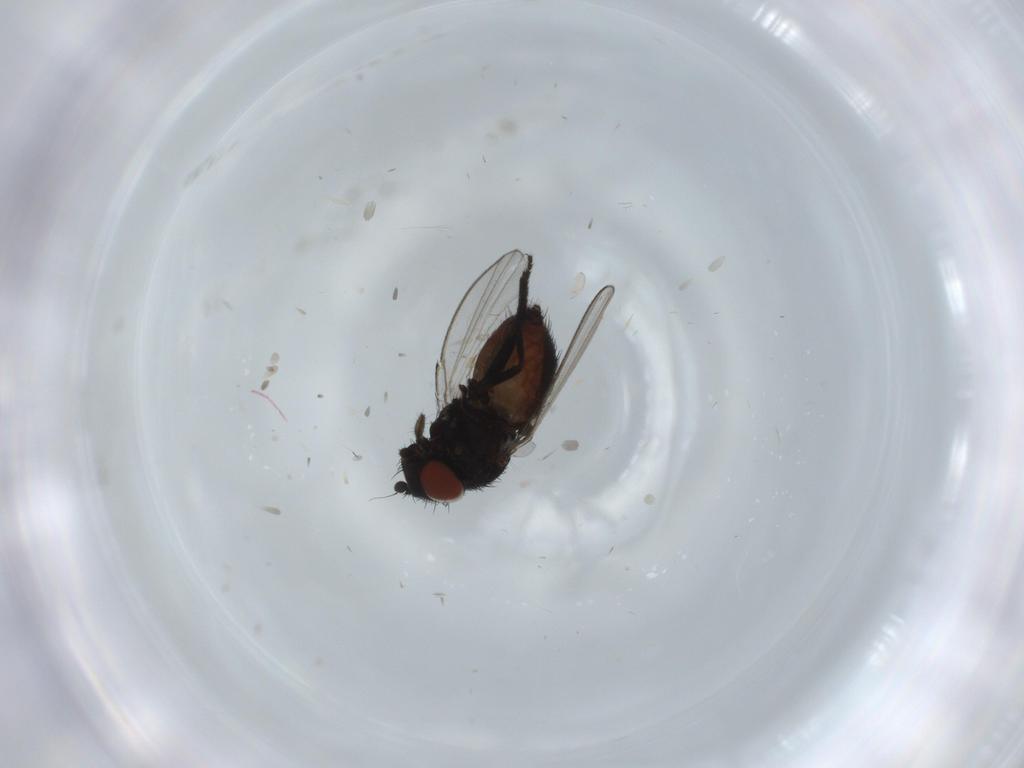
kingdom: Animalia
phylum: Arthropoda
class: Insecta
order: Diptera
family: Milichiidae
